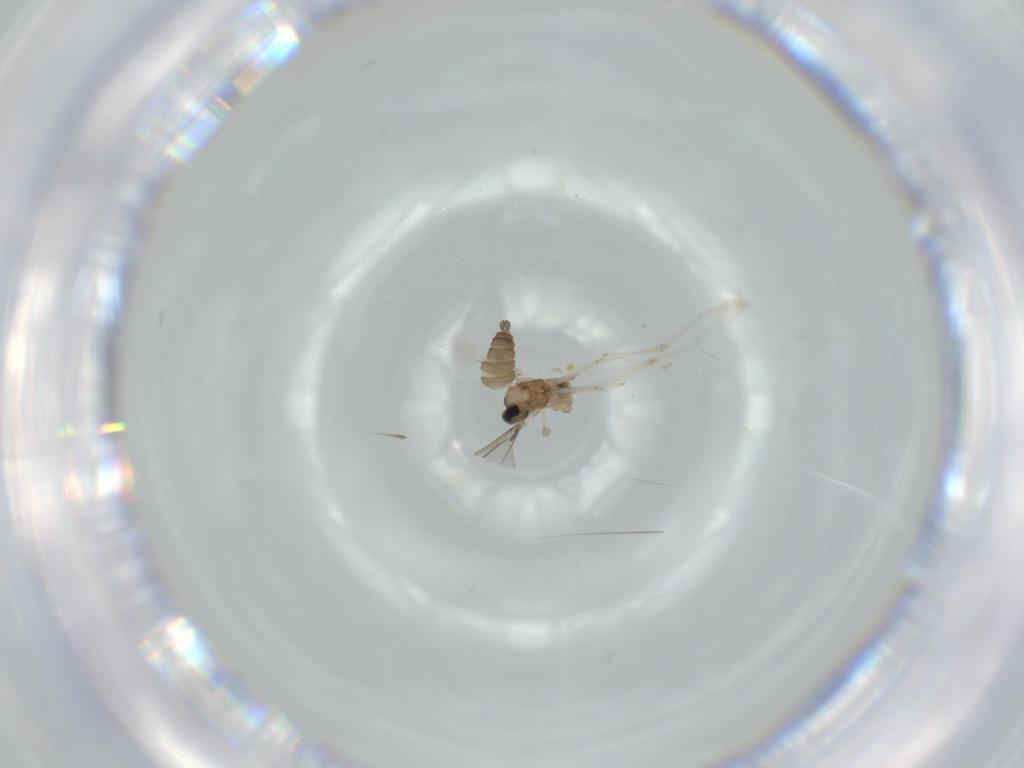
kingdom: Animalia
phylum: Arthropoda
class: Insecta
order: Diptera
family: Cecidomyiidae
